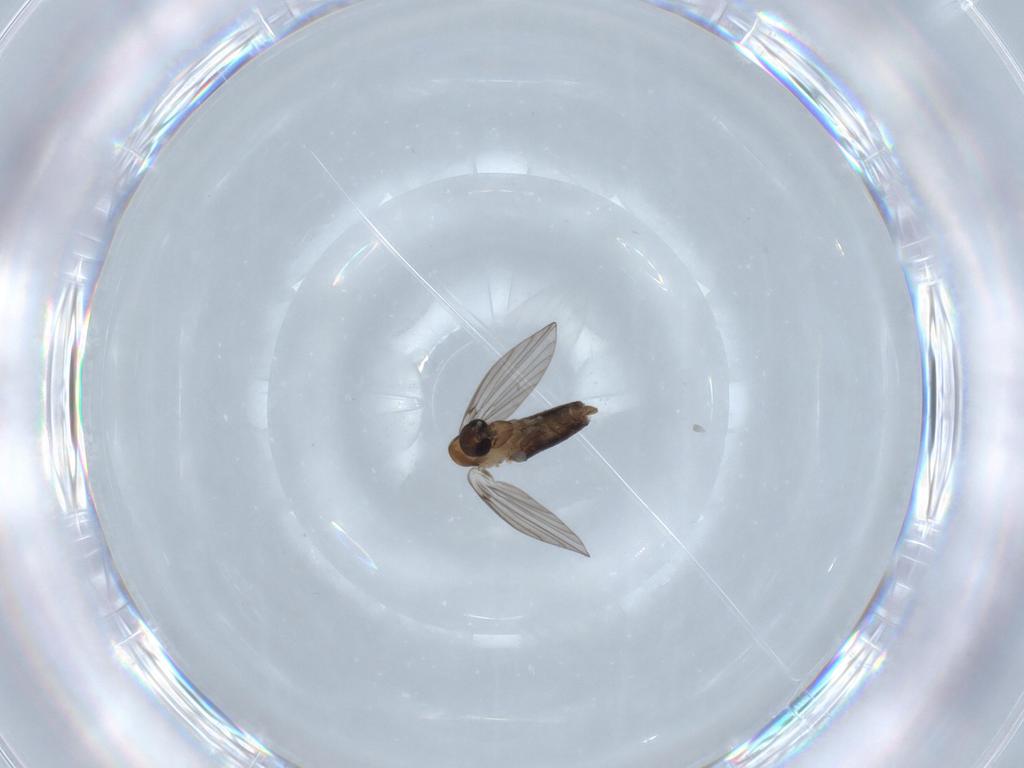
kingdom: Animalia
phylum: Arthropoda
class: Insecta
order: Diptera
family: Psychodidae
